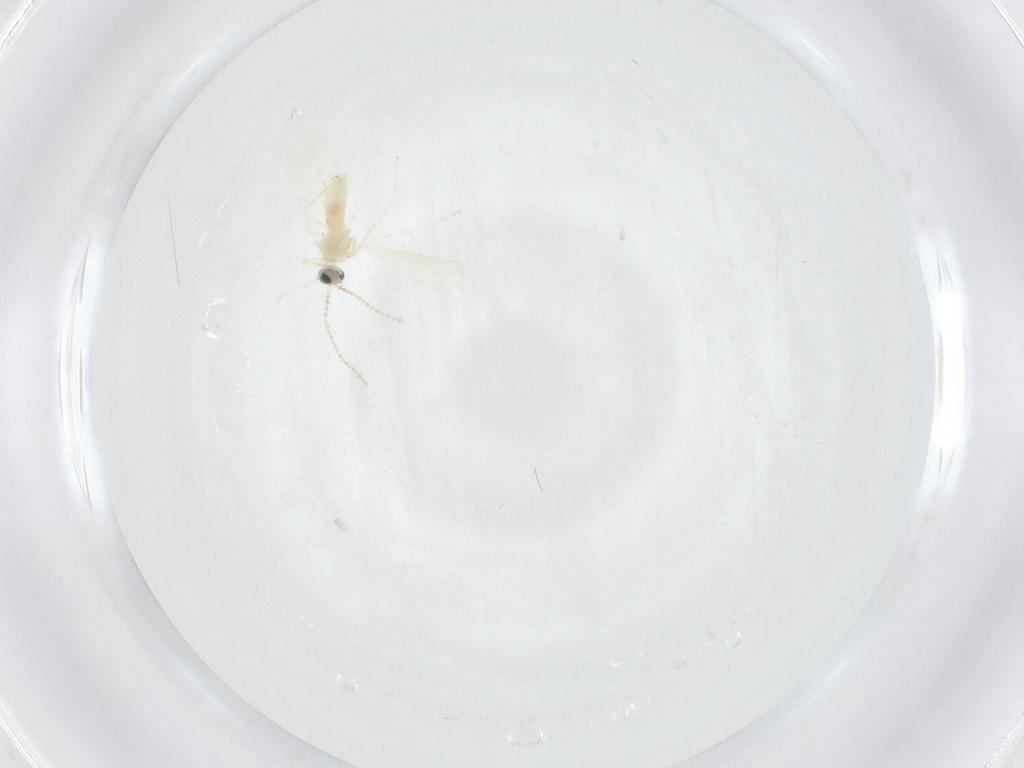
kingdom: Animalia
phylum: Arthropoda
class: Insecta
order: Diptera
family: Cecidomyiidae
